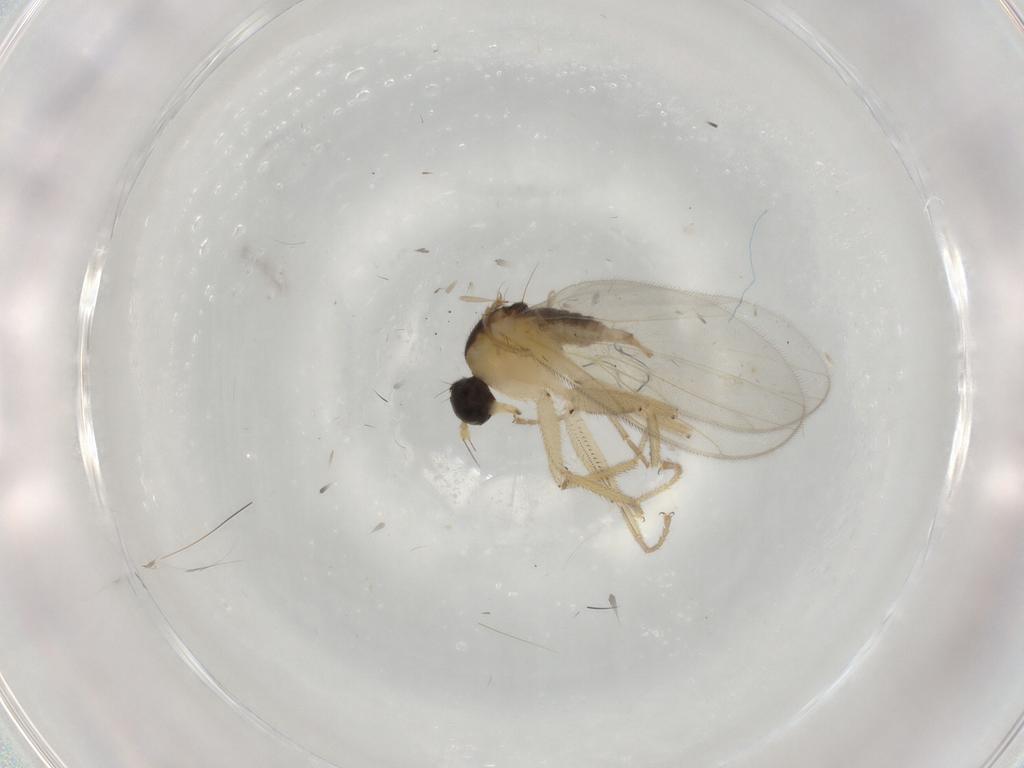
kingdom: Animalia
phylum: Arthropoda
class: Insecta
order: Diptera
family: Hybotidae
